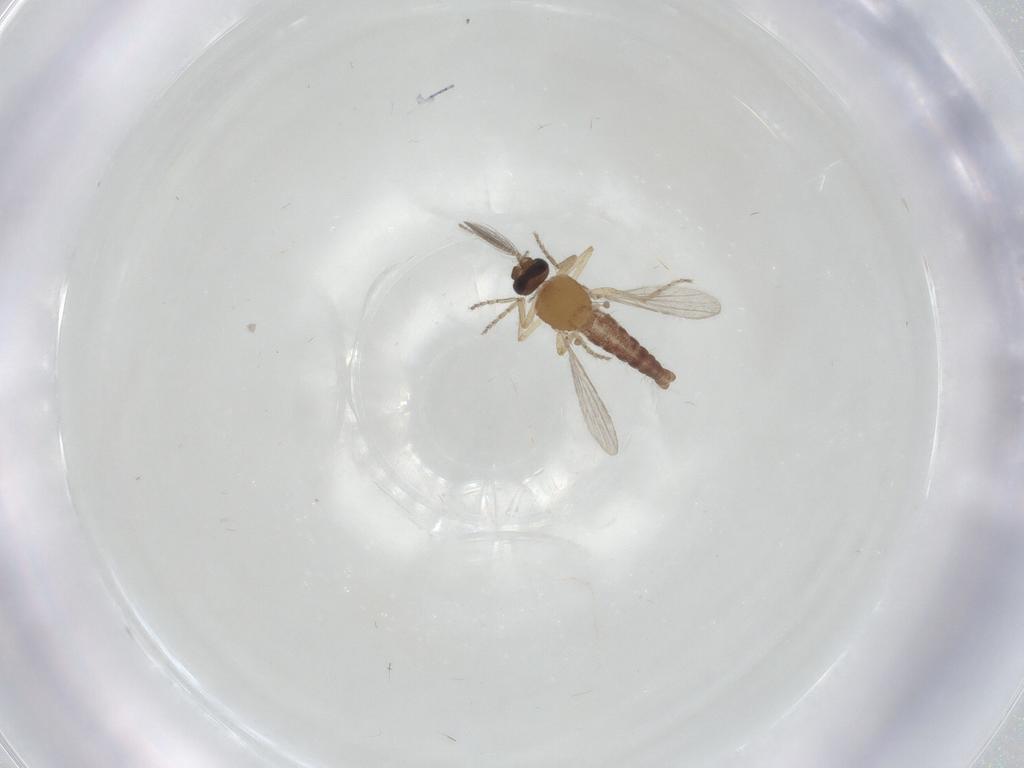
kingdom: Animalia
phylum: Arthropoda
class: Insecta
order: Diptera
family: Ceratopogonidae
